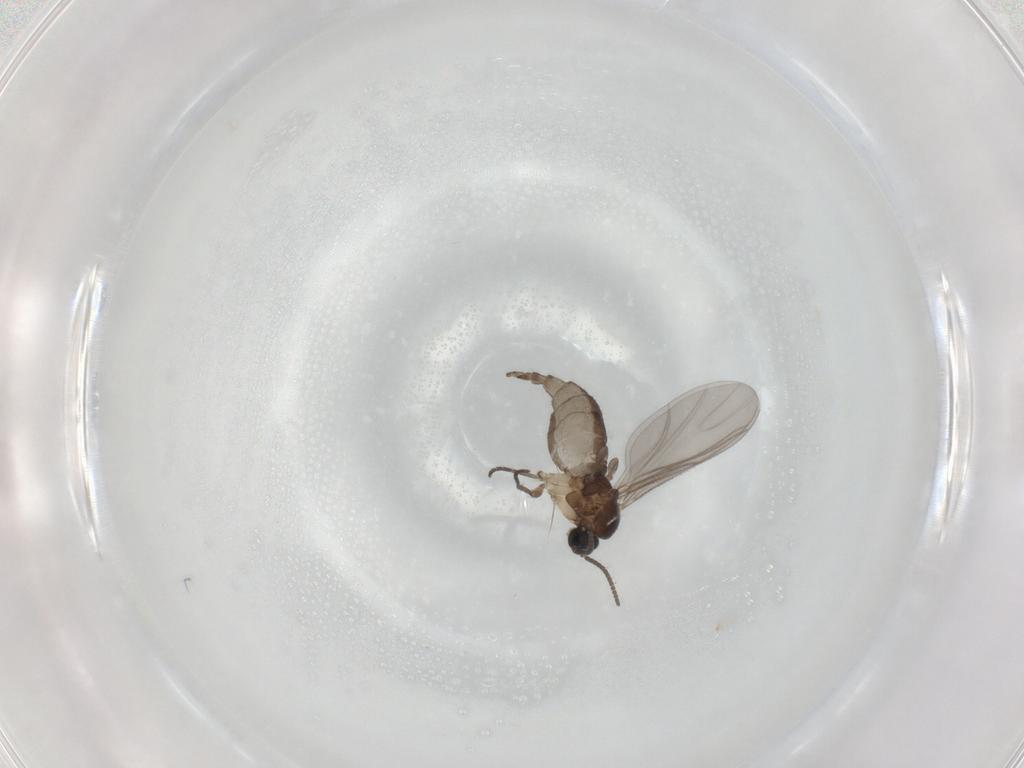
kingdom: Animalia
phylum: Arthropoda
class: Insecta
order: Diptera
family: Sciaridae
